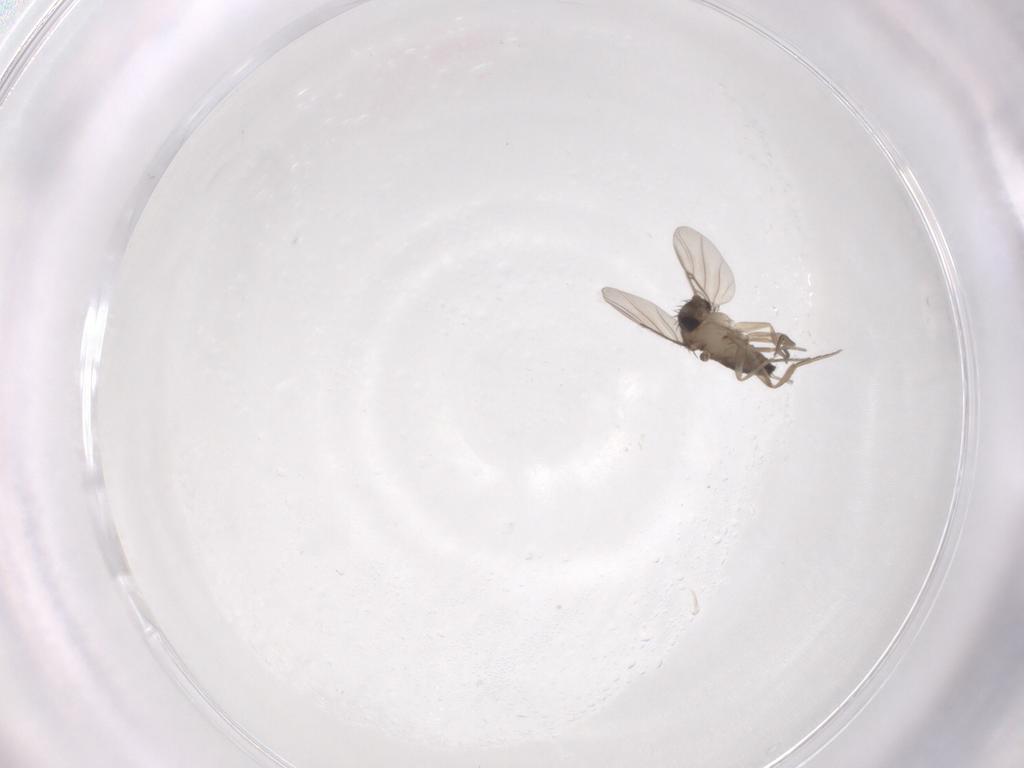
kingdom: Animalia
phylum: Arthropoda
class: Insecta
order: Diptera
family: Phoridae
